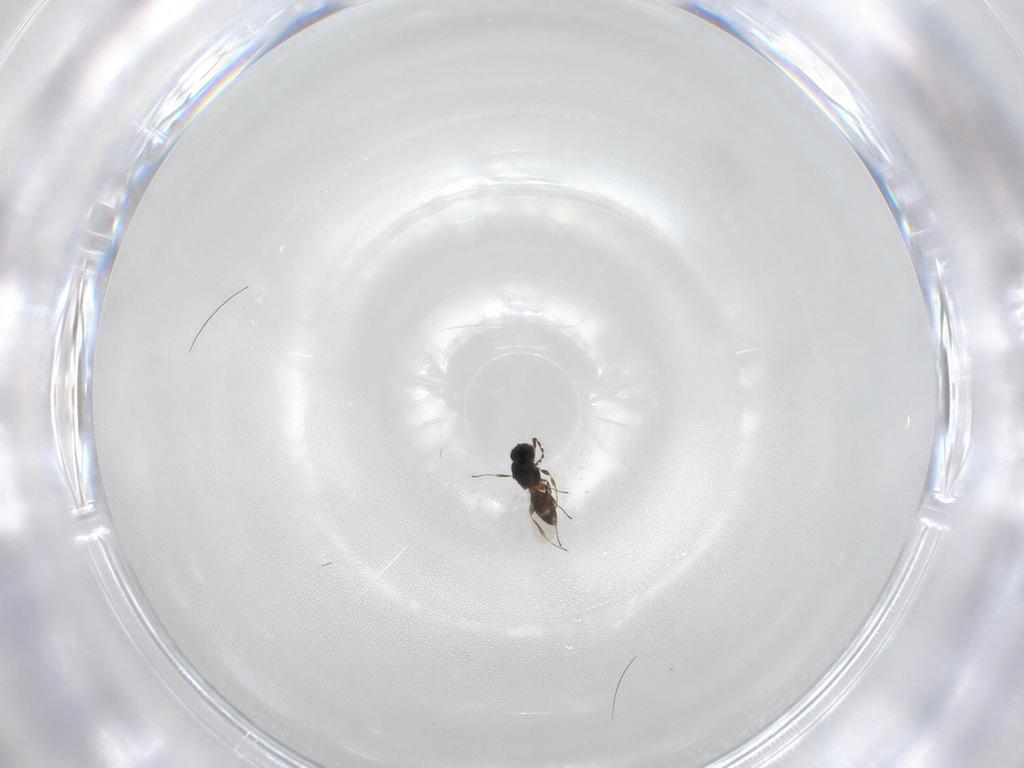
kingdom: Animalia
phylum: Arthropoda
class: Insecta
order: Hymenoptera
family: Platygastridae
